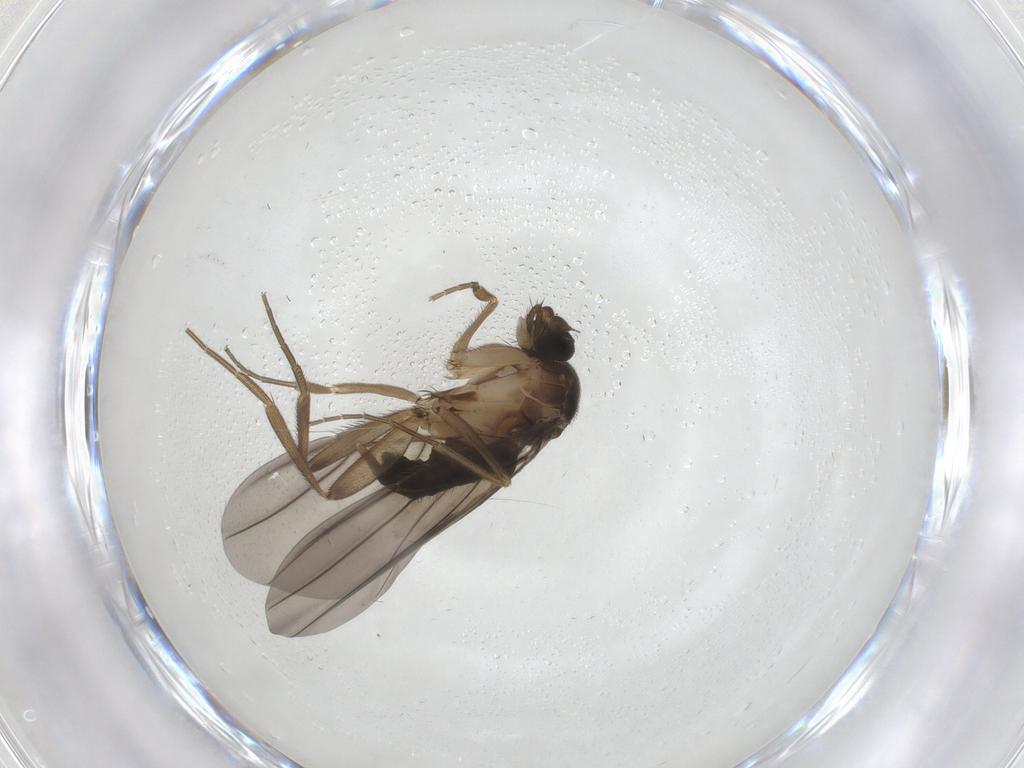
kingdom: Animalia
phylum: Arthropoda
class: Insecta
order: Diptera
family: Phoridae
